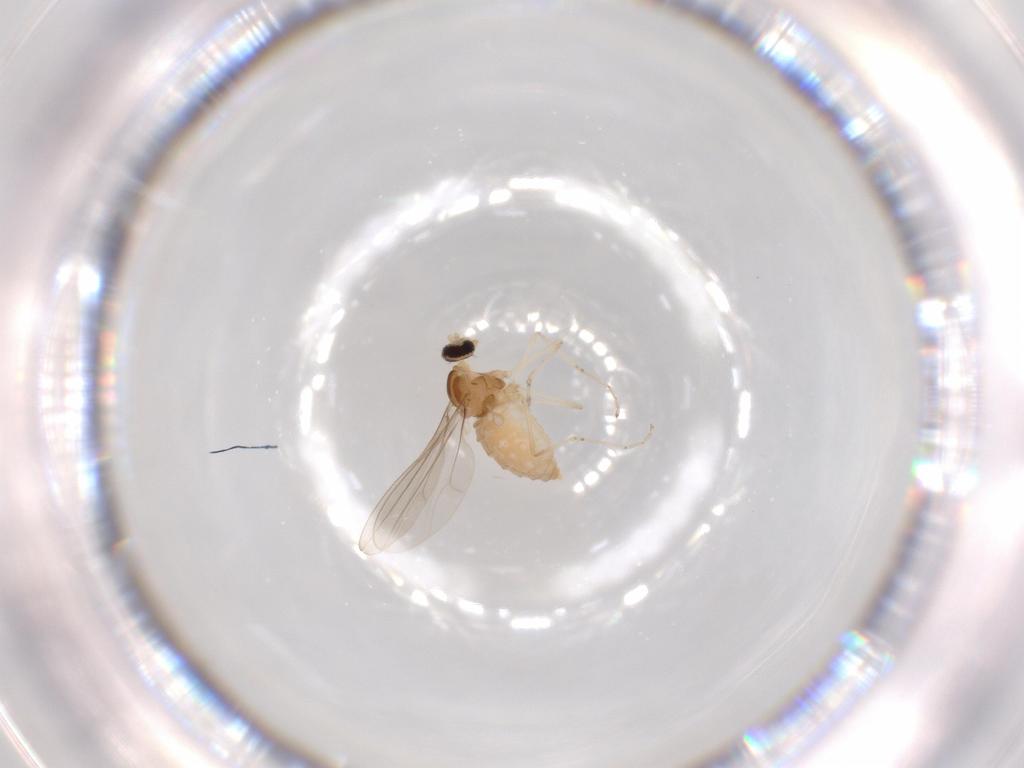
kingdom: Animalia
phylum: Arthropoda
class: Insecta
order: Diptera
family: Cecidomyiidae
